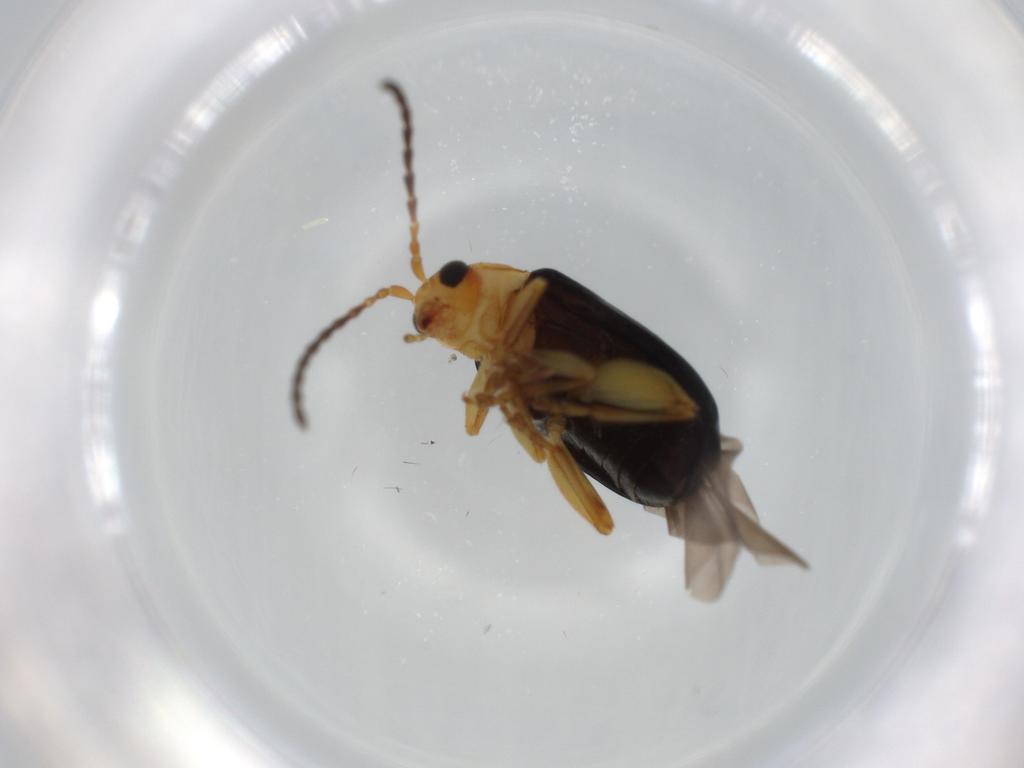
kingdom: Animalia
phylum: Arthropoda
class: Insecta
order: Coleoptera
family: Chrysomelidae
